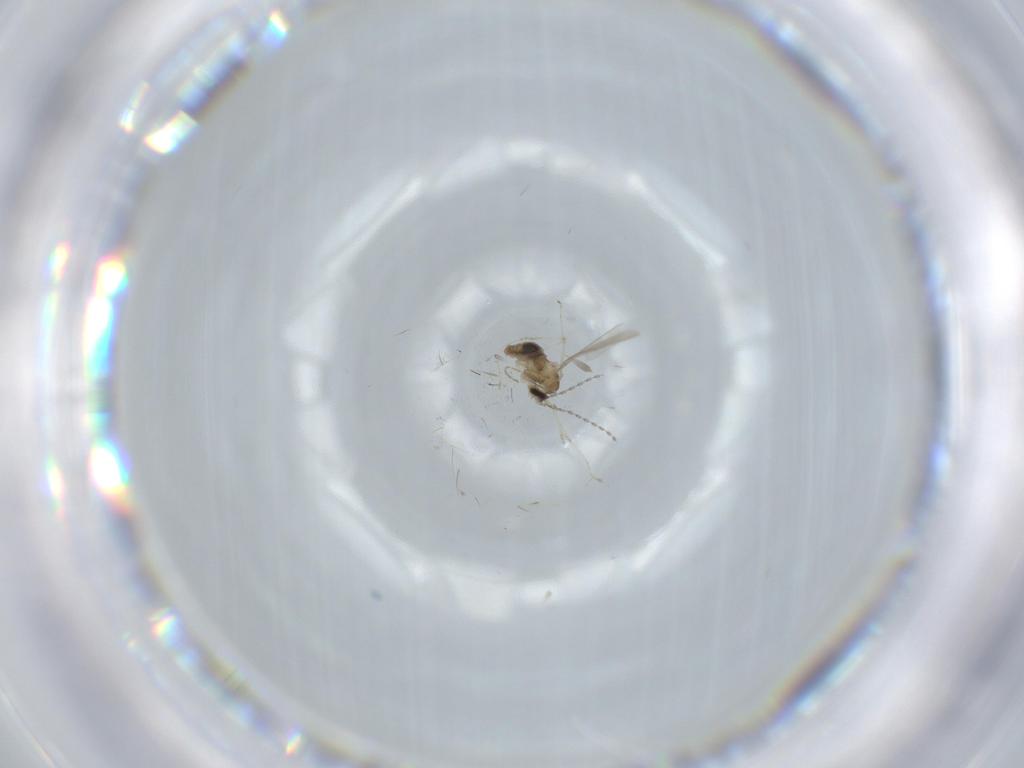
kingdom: Animalia
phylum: Arthropoda
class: Insecta
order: Diptera
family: Cecidomyiidae
